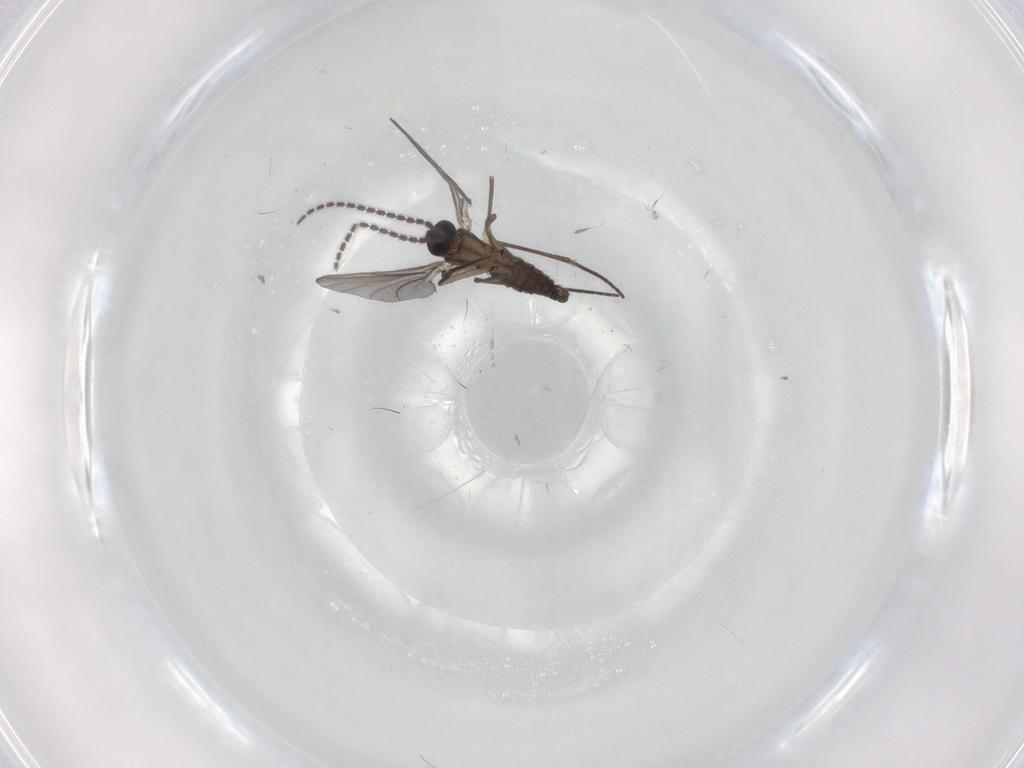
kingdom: Animalia
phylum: Arthropoda
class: Insecta
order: Diptera
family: Sciaridae
